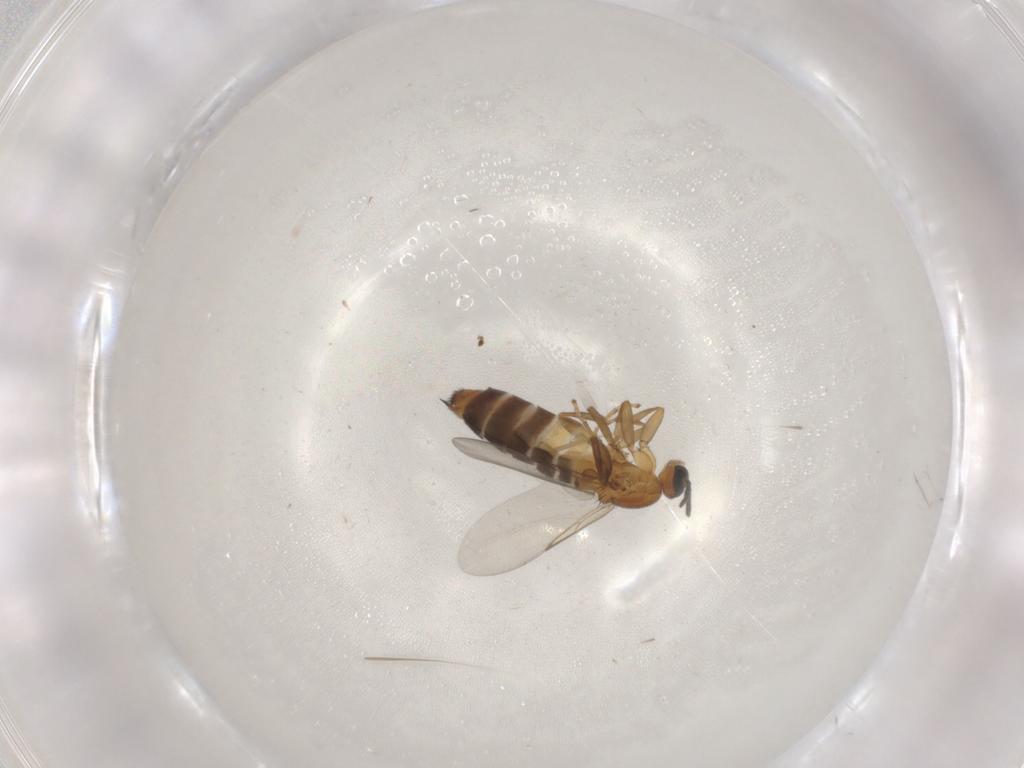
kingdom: Animalia
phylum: Arthropoda
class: Insecta
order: Diptera
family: Scatopsidae
